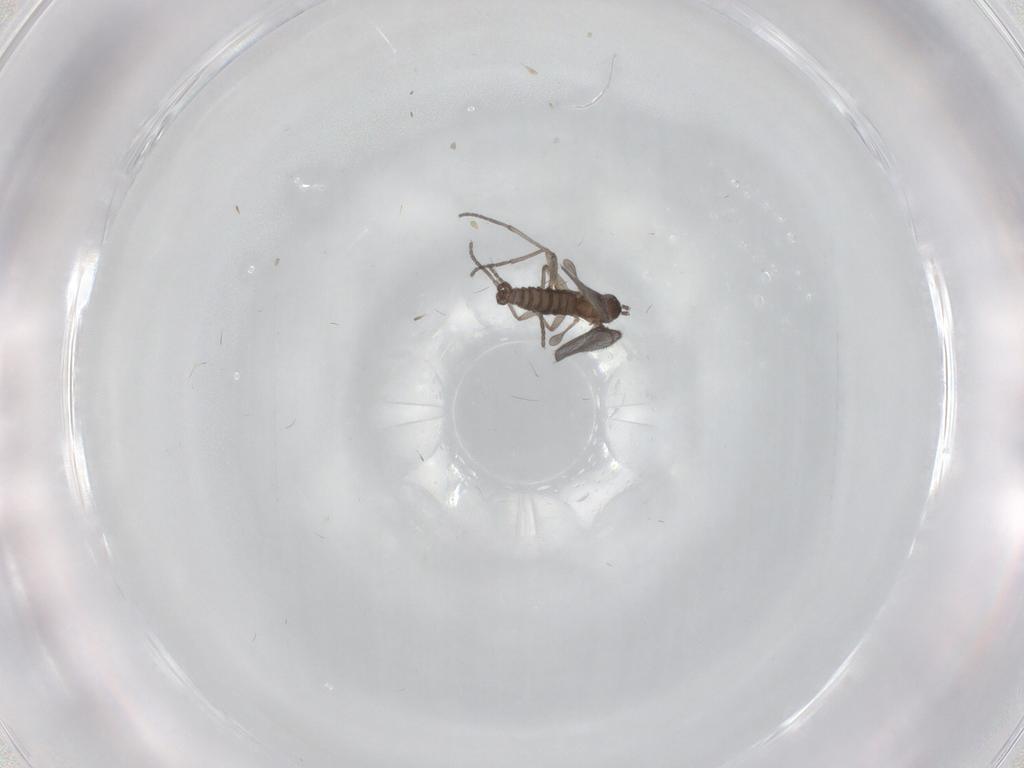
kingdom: Animalia
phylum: Arthropoda
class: Insecta
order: Diptera
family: Sciaridae
